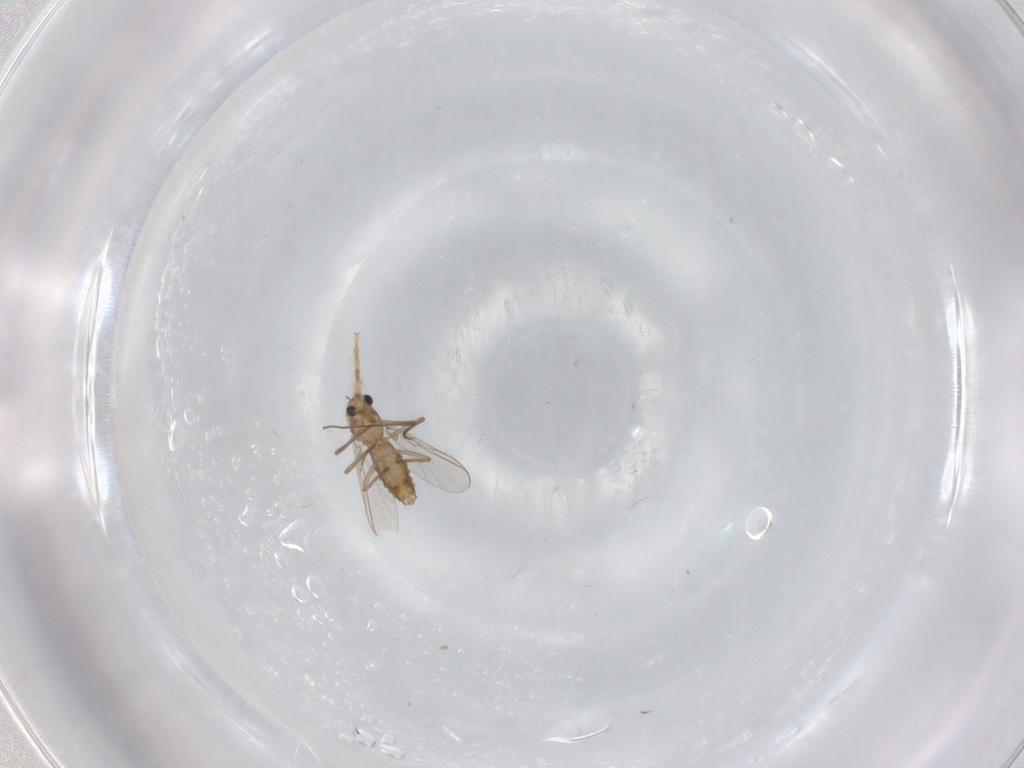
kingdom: Animalia
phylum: Arthropoda
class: Insecta
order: Diptera
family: Chironomidae
